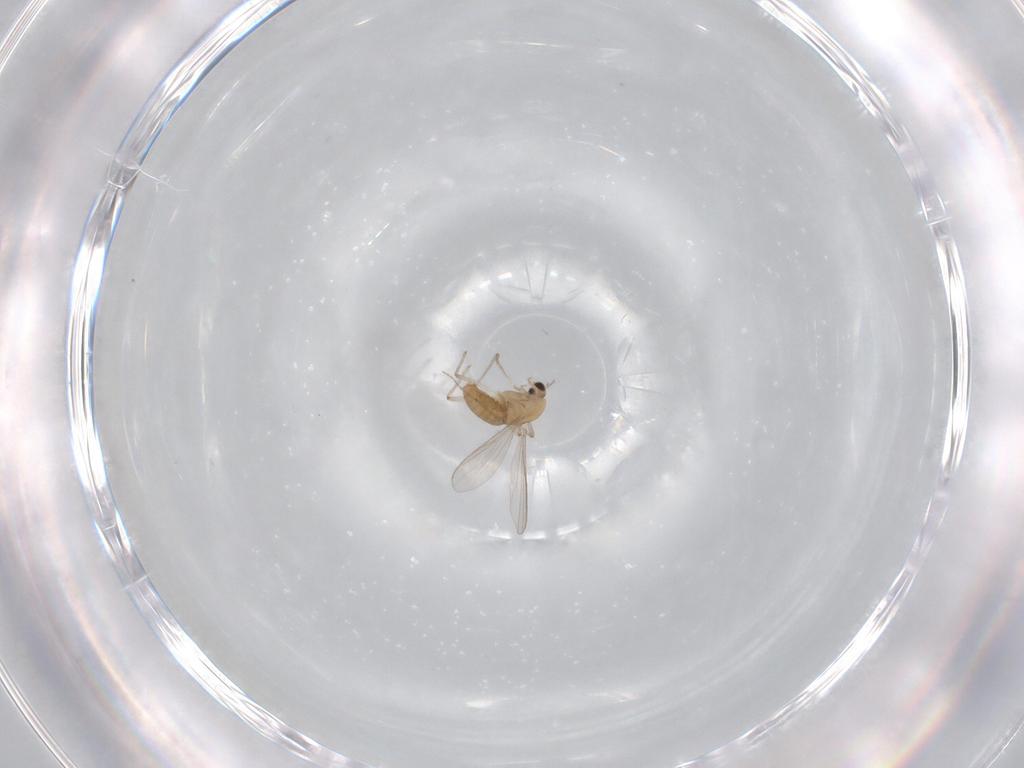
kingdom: Animalia
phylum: Arthropoda
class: Insecta
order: Diptera
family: Chironomidae
